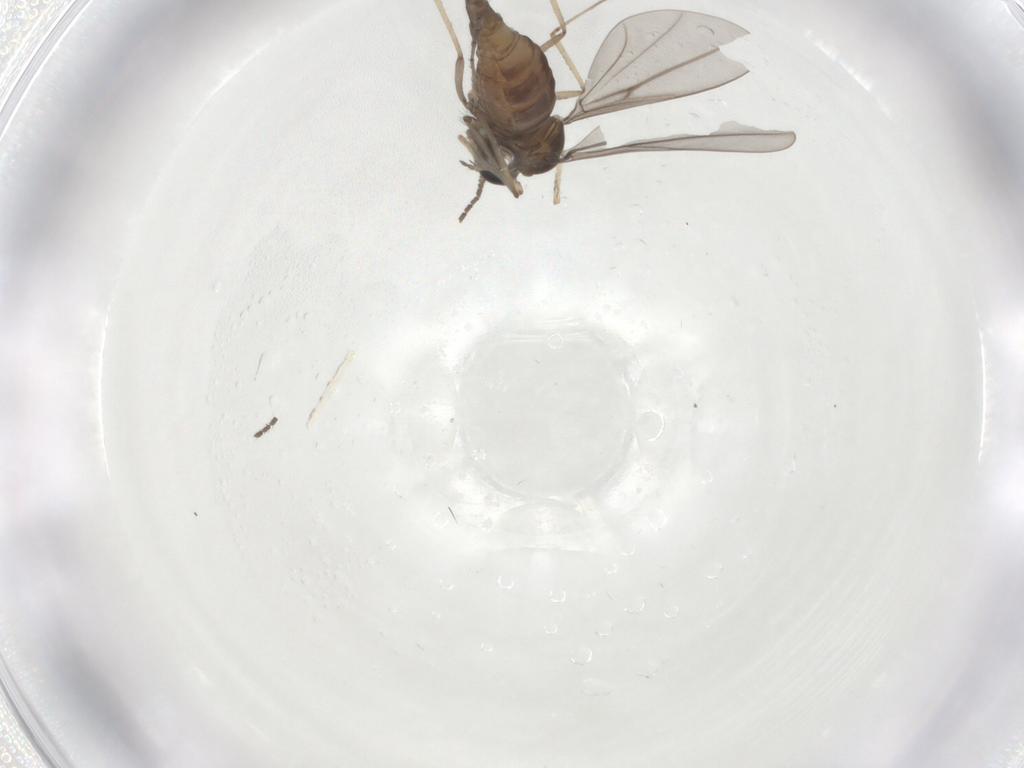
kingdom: Animalia
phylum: Arthropoda
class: Insecta
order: Diptera
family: Cecidomyiidae
